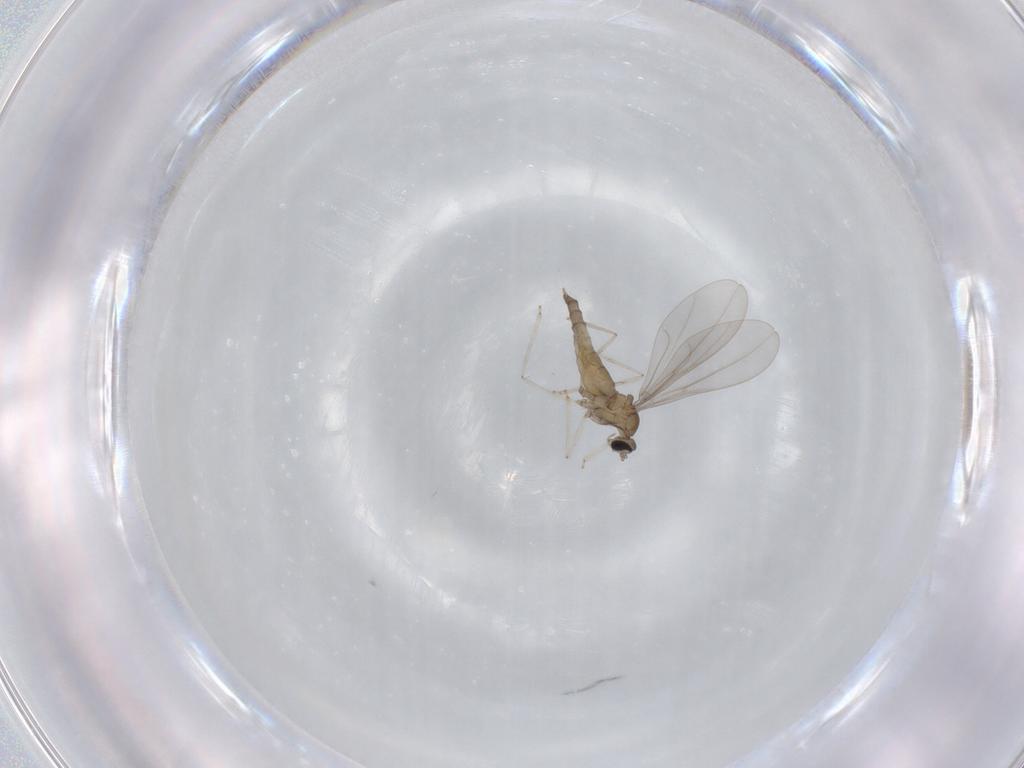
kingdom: Animalia
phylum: Arthropoda
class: Insecta
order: Diptera
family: Cecidomyiidae
